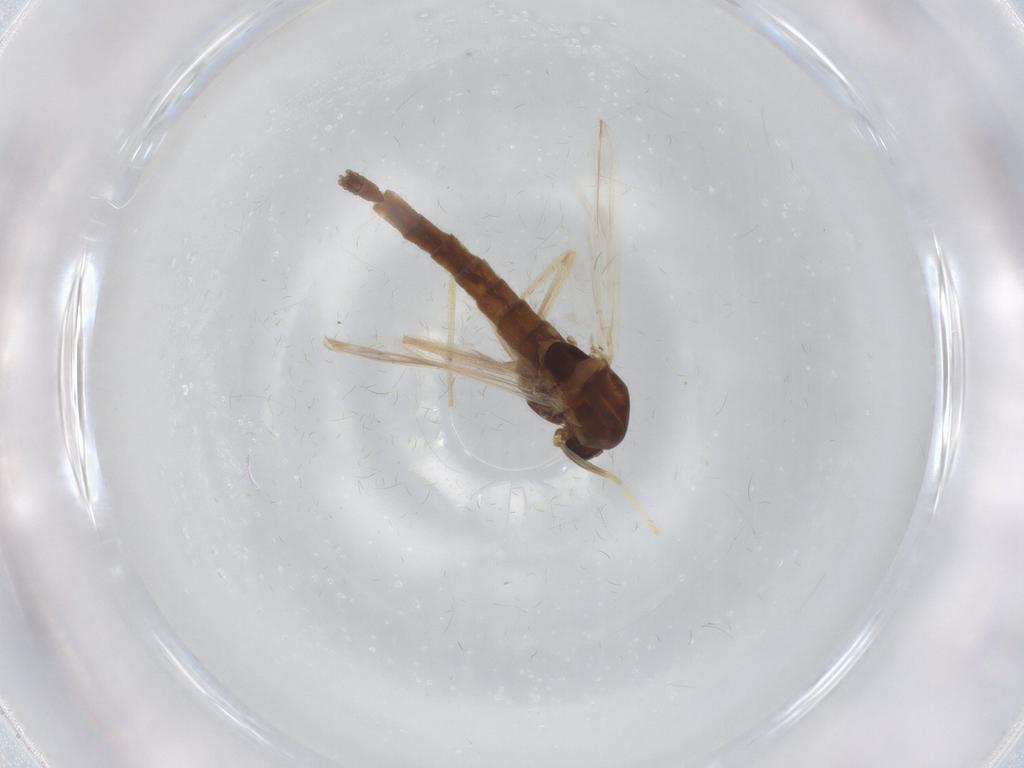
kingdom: Animalia
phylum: Arthropoda
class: Insecta
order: Diptera
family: Chironomidae
